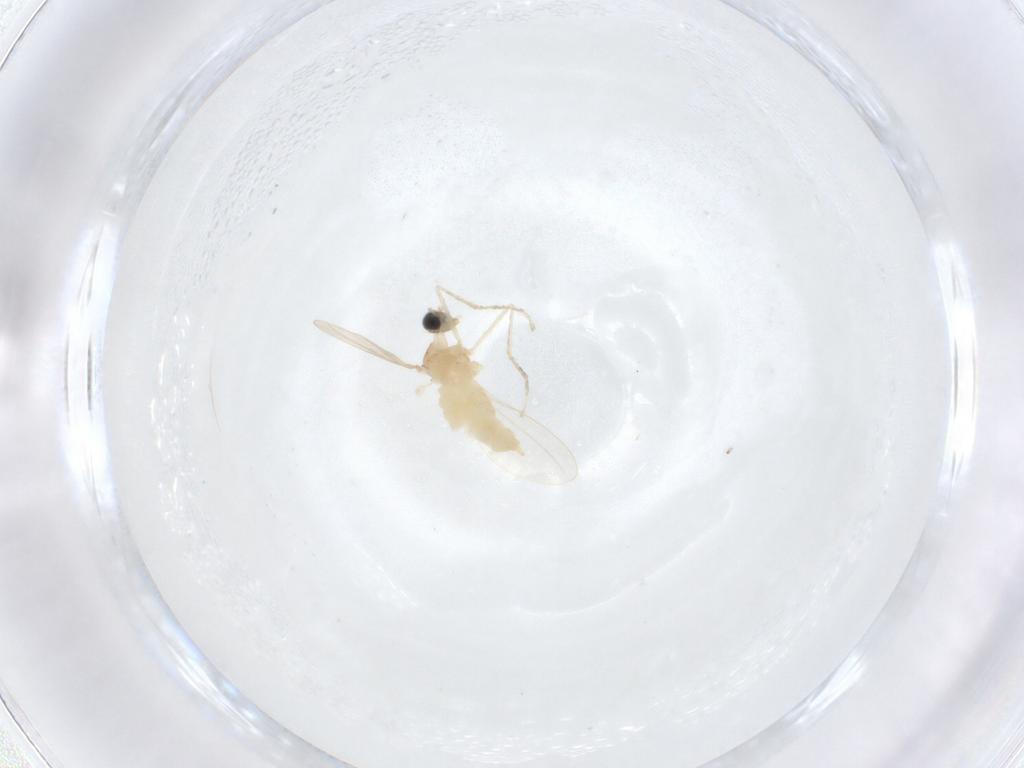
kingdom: Animalia
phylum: Arthropoda
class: Insecta
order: Diptera
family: Cecidomyiidae
